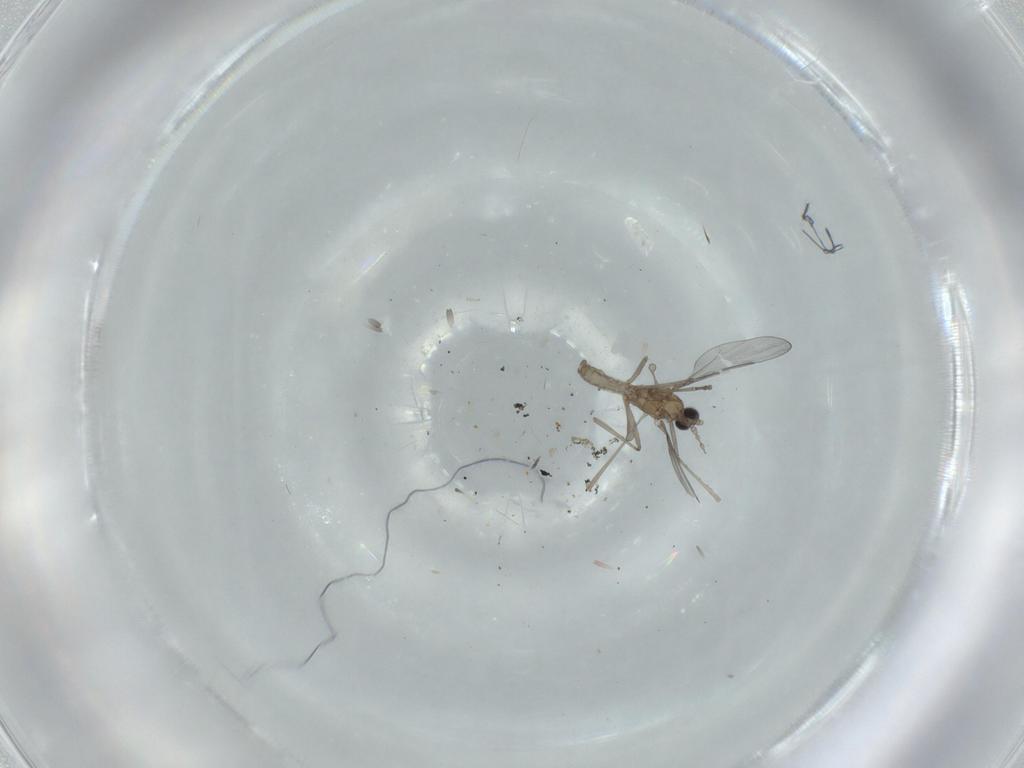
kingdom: Animalia
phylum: Arthropoda
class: Insecta
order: Diptera
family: Cecidomyiidae
